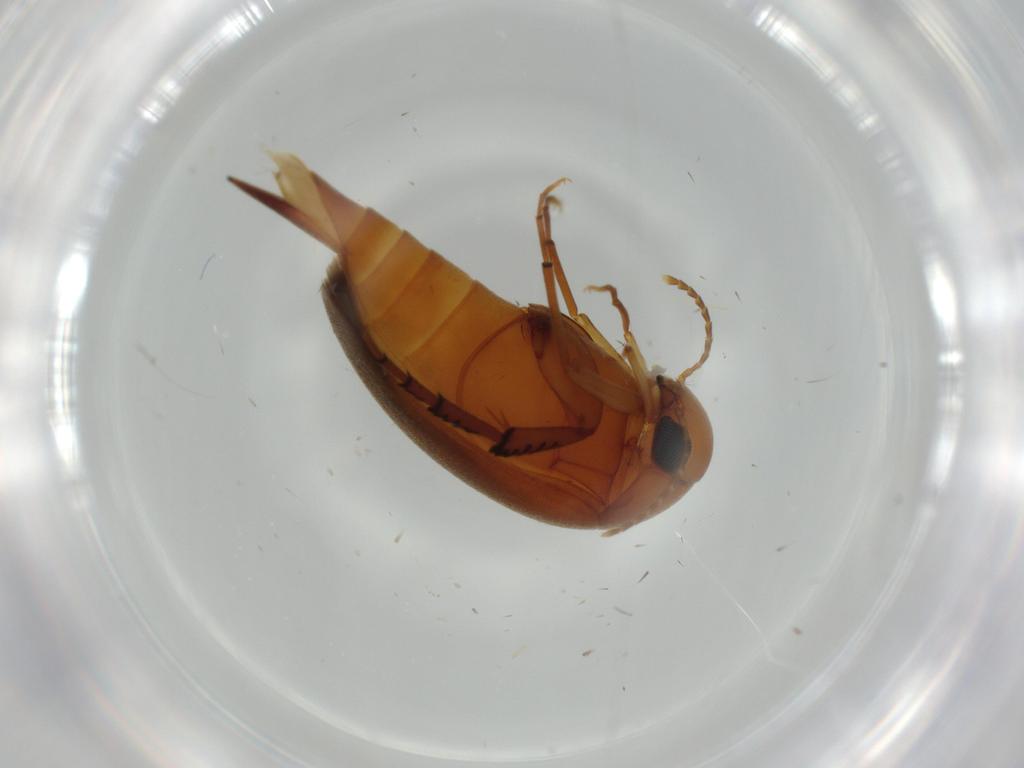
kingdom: Animalia
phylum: Arthropoda
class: Insecta
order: Coleoptera
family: Mordellidae
